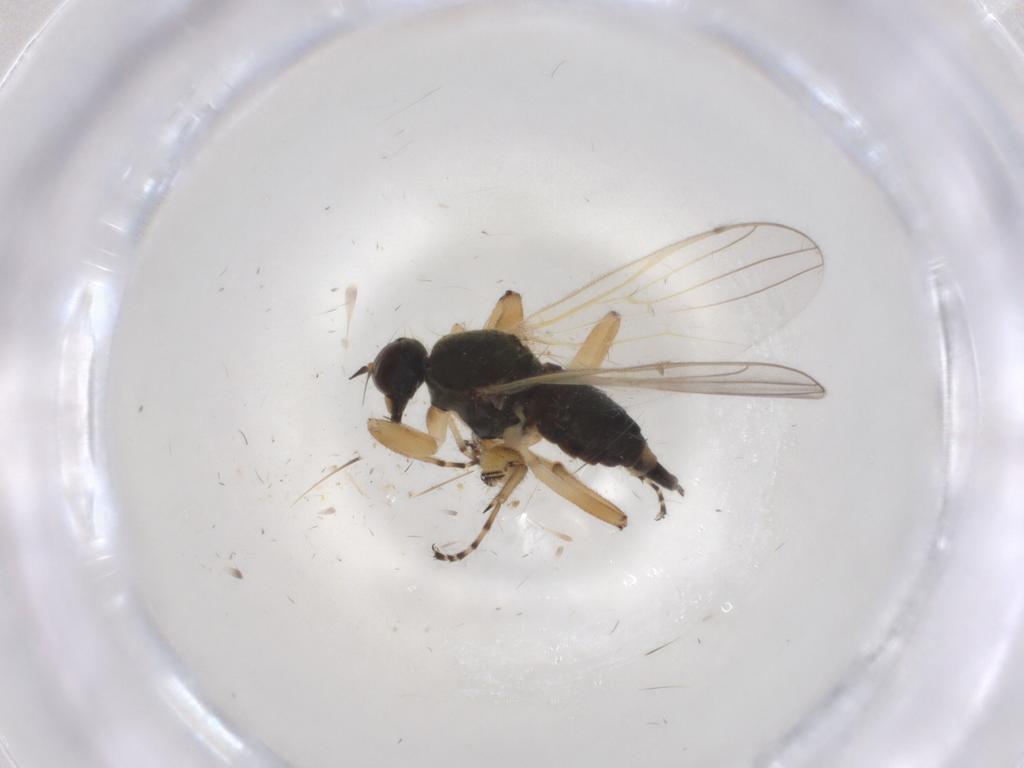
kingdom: Animalia
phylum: Arthropoda
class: Insecta
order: Diptera
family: Hybotidae
